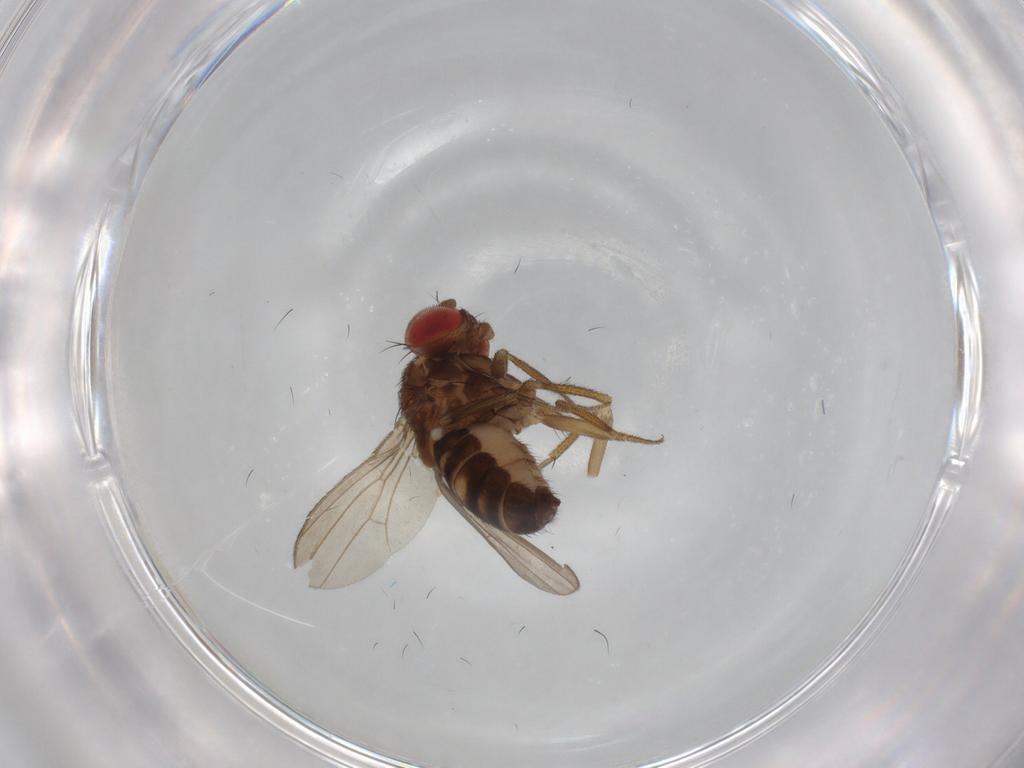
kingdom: Animalia
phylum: Arthropoda
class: Insecta
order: Diptera
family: Drosophilidae
